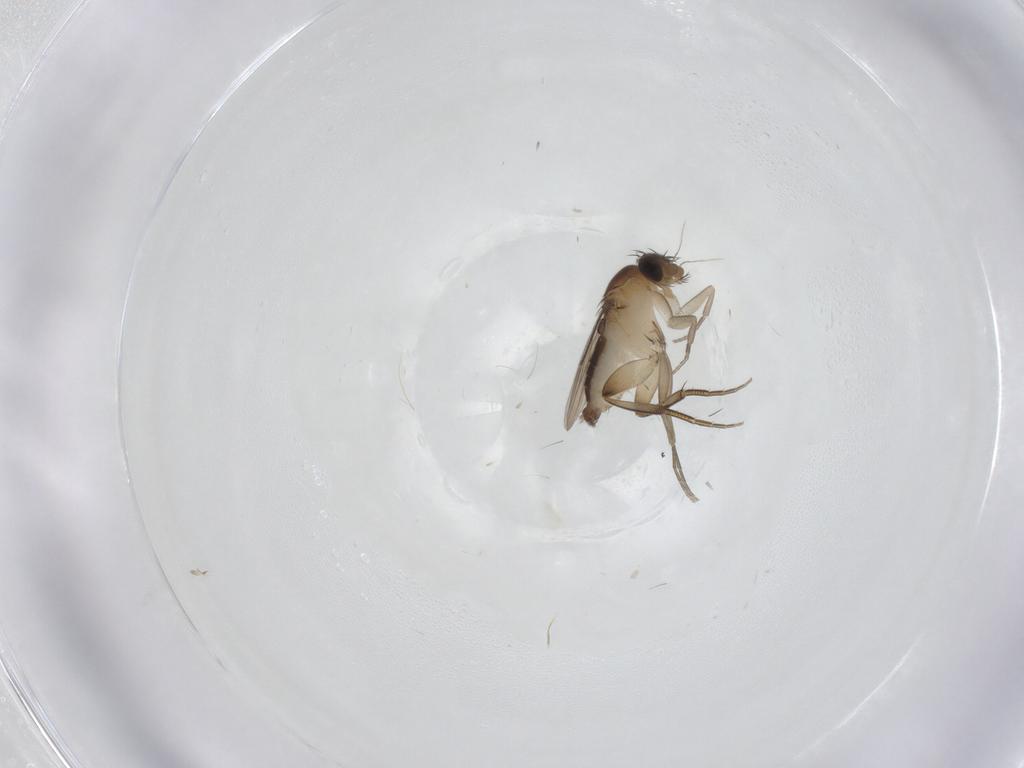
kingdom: Animalia
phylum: Arthropoda
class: Insecta
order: Diptera
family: Phoridae
